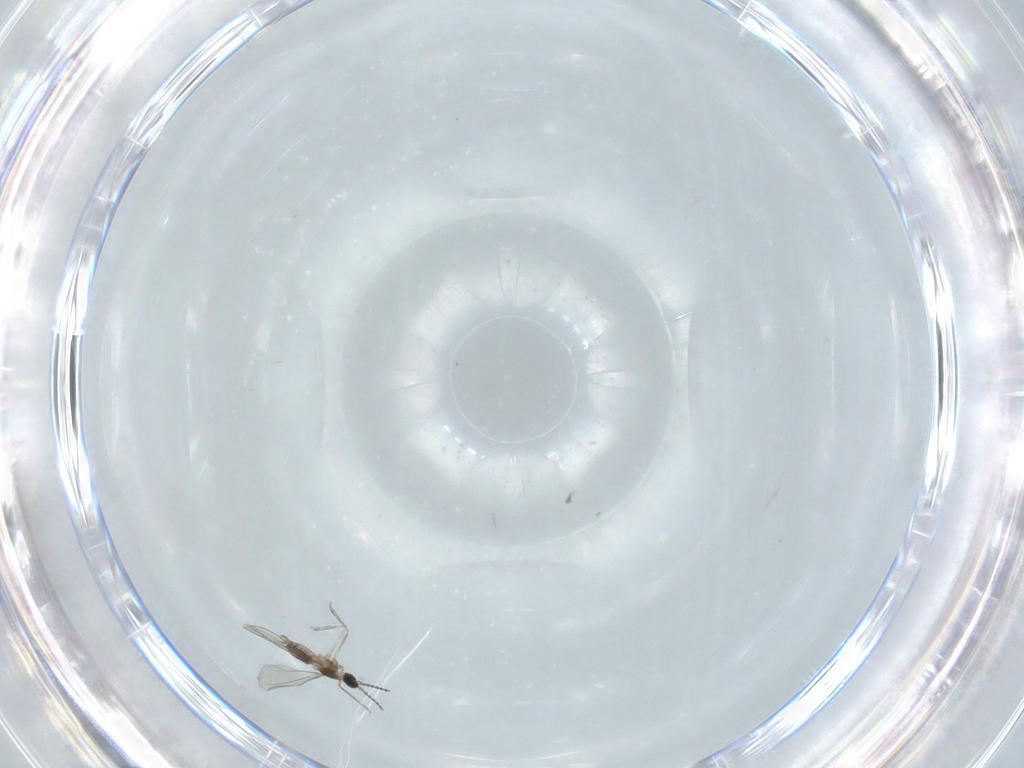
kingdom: Animalia
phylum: Arthropoda
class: Insecta
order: Diptera
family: Cecidomyiidae
